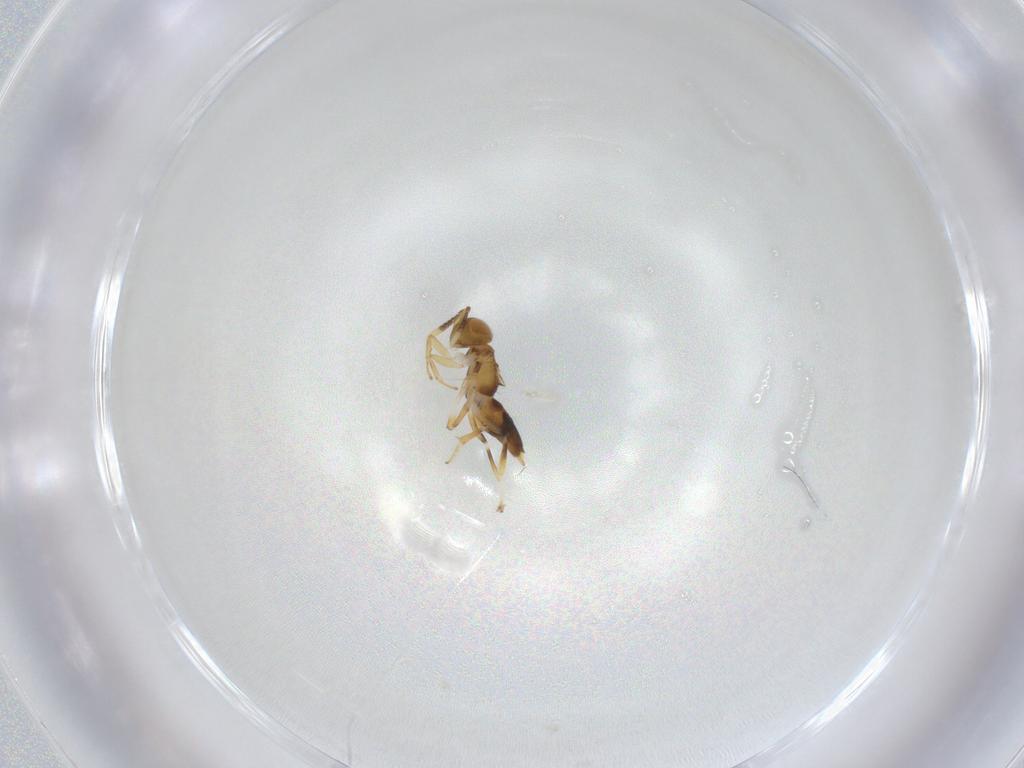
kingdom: Animalia
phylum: Arthropoda
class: Insecta
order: Hymenoptera
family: Encyrtidae
